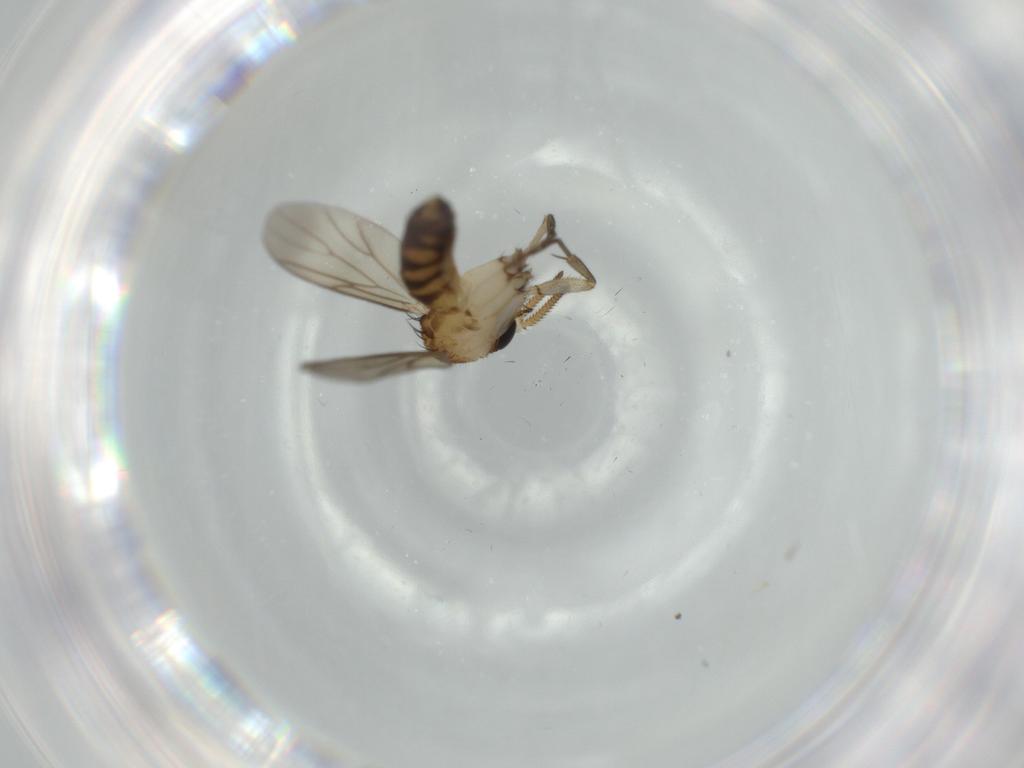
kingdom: Animalia
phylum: Arthropoda
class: Insecta
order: Diptera
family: Mycetophilidae
